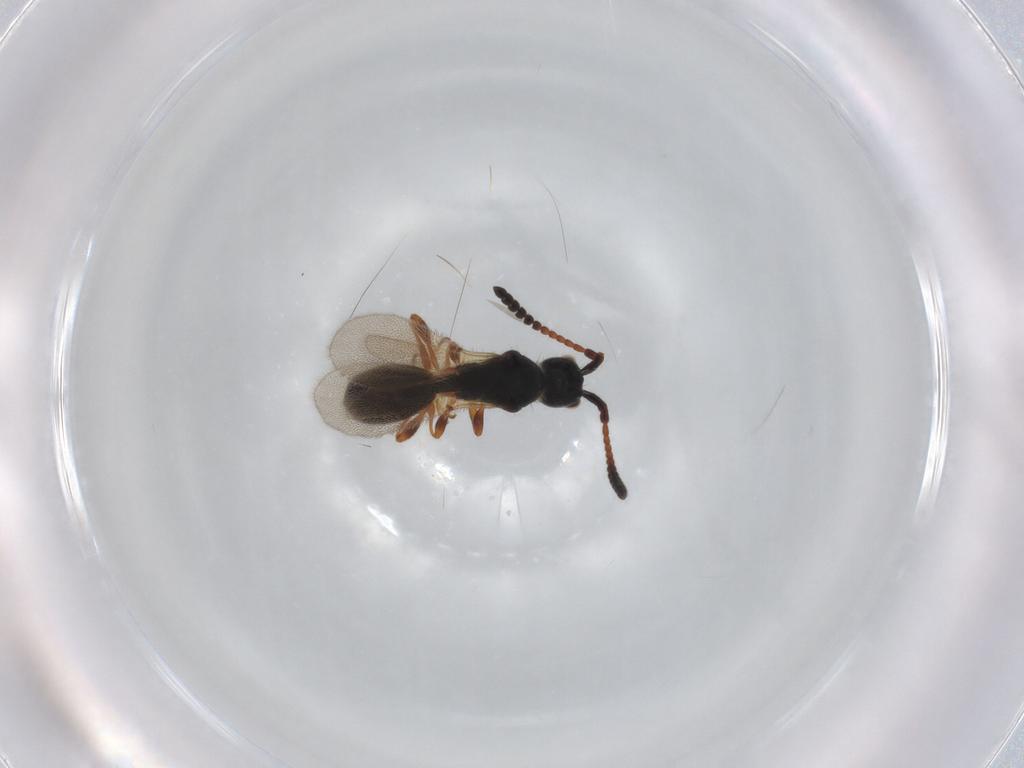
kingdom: Animalia
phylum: Arthropoda
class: Insecta
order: Hymenoptera
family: Diapriidae
